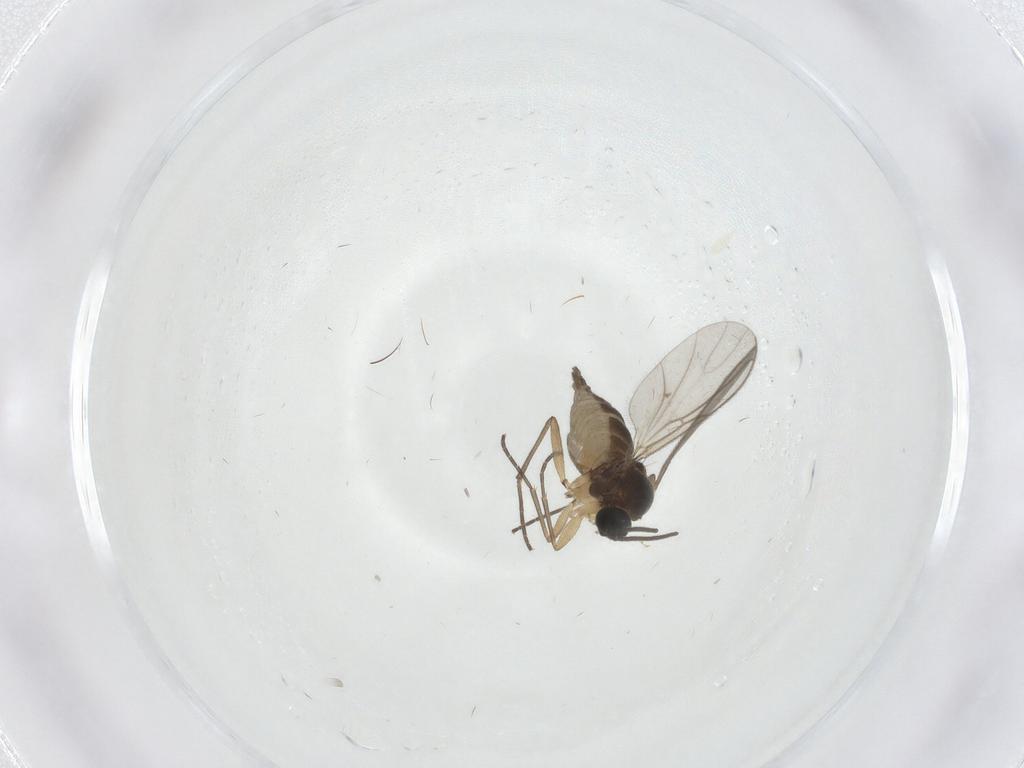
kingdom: Animalia
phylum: Arthropoda
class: Insecta
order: Diptera
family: Sciaridae
